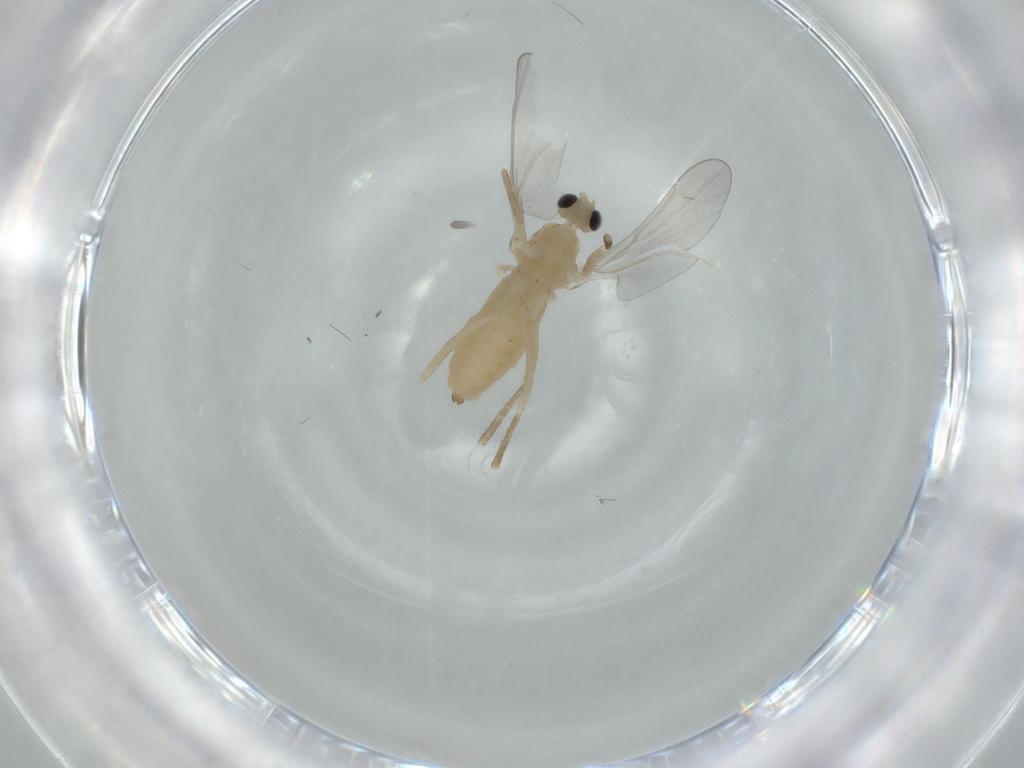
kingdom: Animalia
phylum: Arthropoda
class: Insecta
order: Diptera
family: Cecidomyiidae
